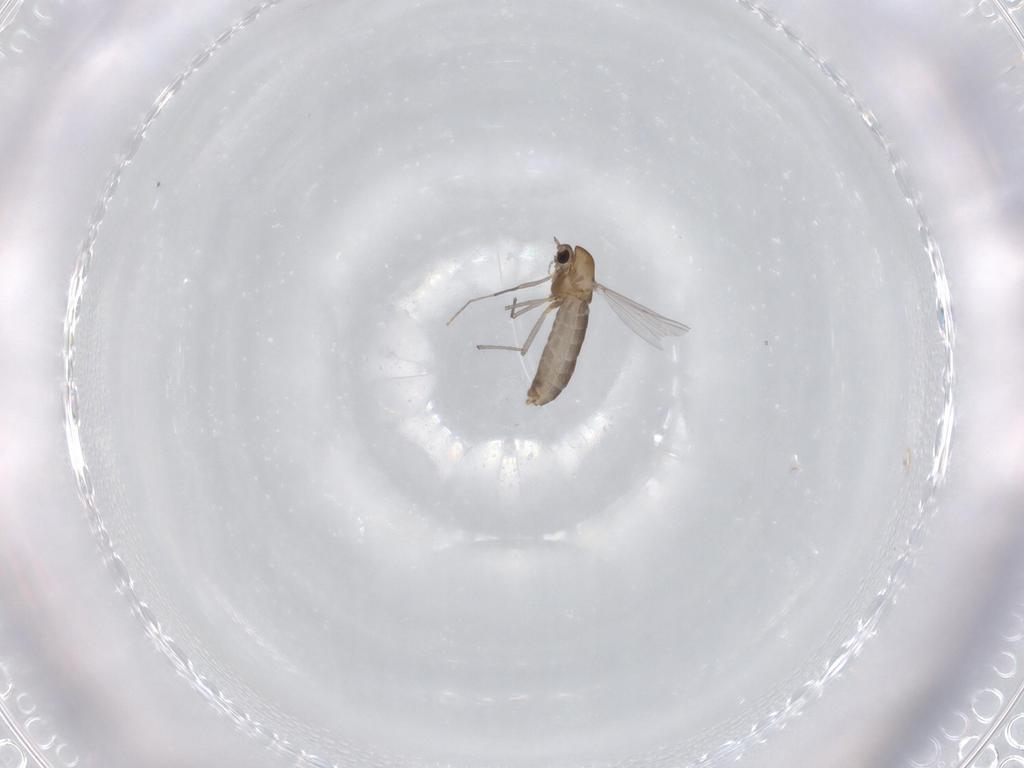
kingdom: Animalia
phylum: Arthropoda
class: Insecta
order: Diptera
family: Chironomidae
